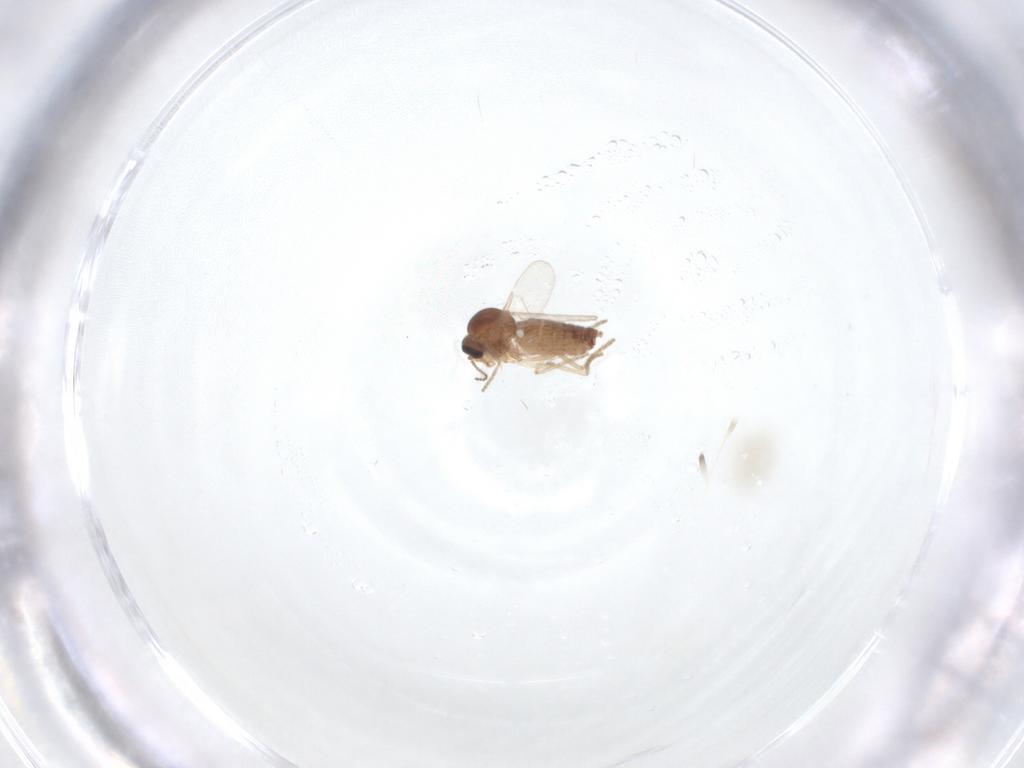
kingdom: Animalia
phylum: Arthropoda
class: Insecta
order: Diptera
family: Ceratopogonidae
